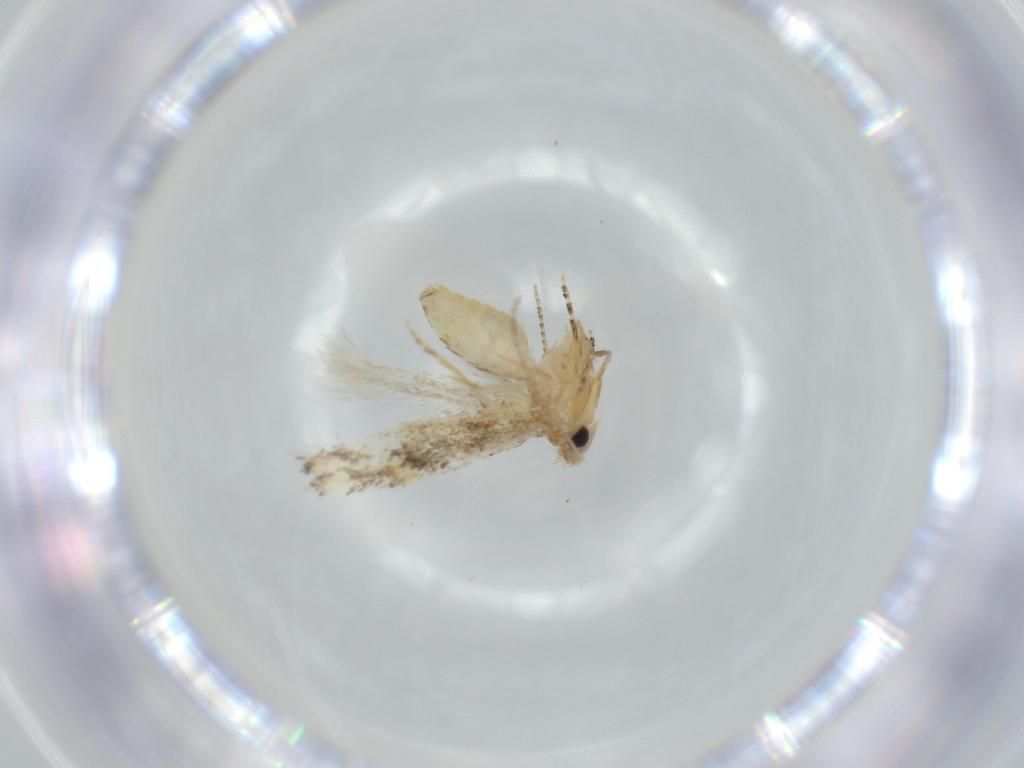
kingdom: Animalia
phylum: Arthropoda
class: Insecta
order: Lepidoptera
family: Bucculatricidae
